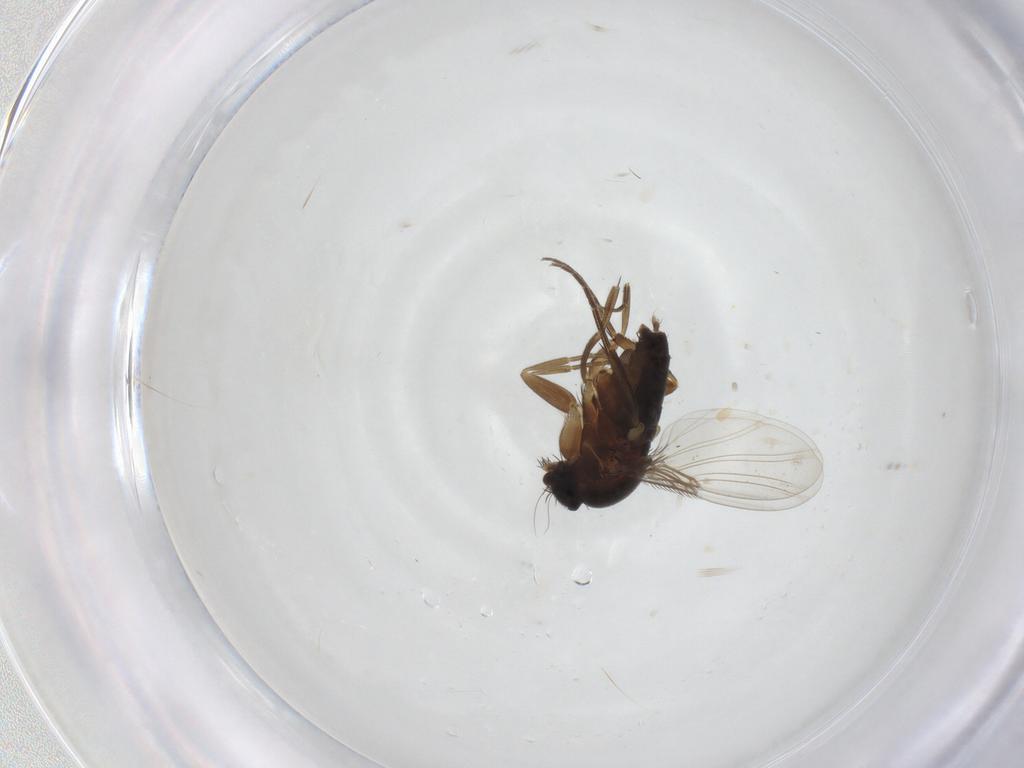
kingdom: Animalia
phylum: Arthropoda
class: Insecta
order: Diptera
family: Phoridae
